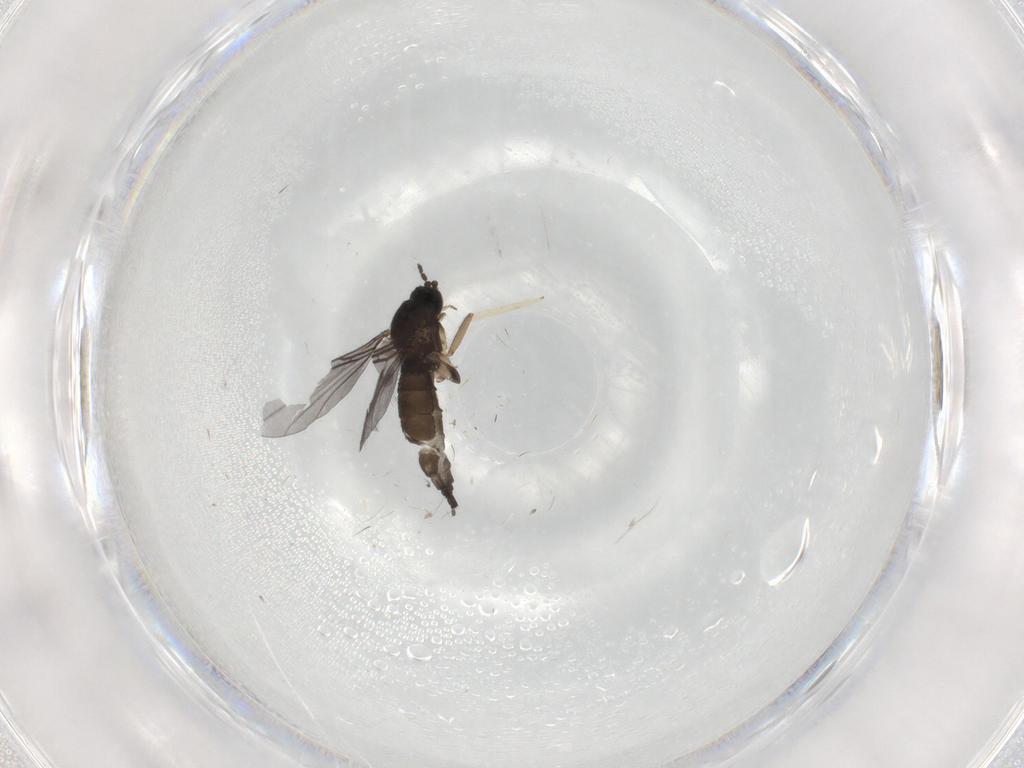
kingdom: Animalia
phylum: Arthropoda
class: Insecta
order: Diptera
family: Sciaridae
